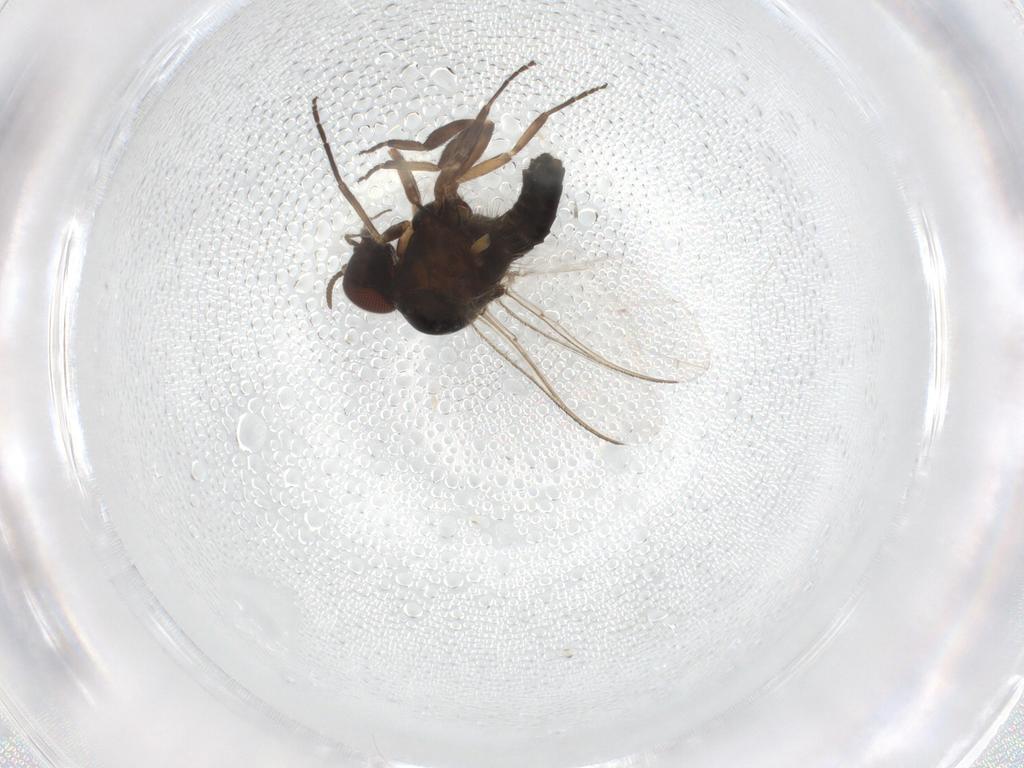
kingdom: Animalia
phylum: Arthropoda
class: Insecta
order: Diptera
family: Simuliidae
